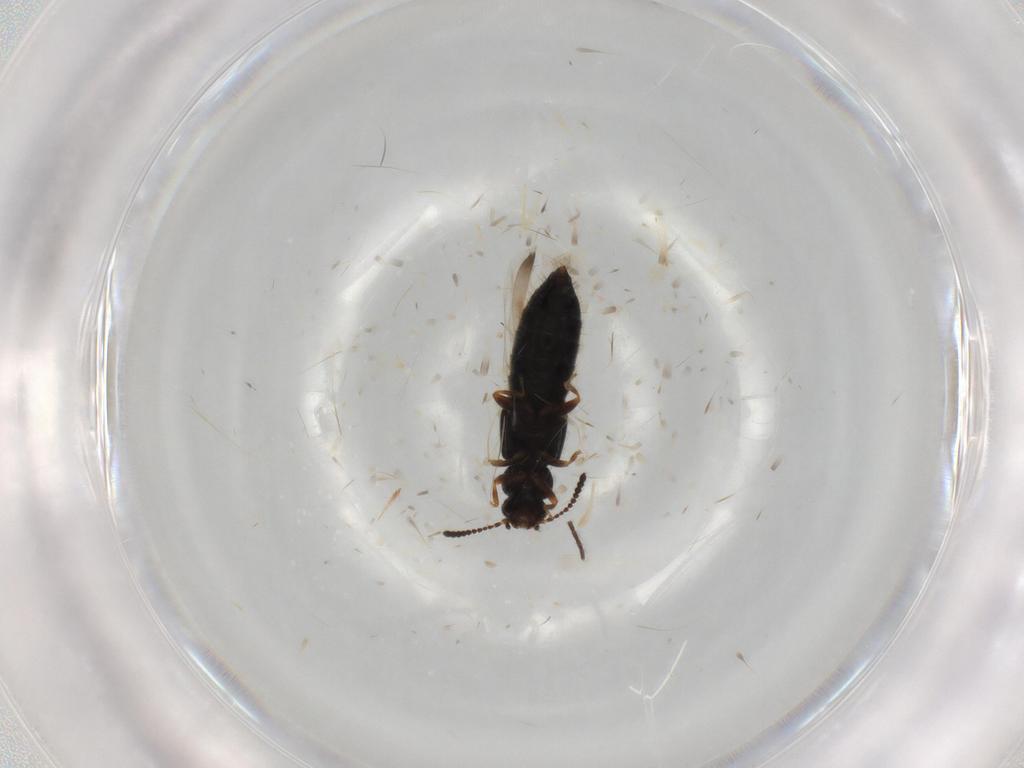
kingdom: Animalia
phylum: Arthropoda
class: Insecta
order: Coleoptera
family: Staphylinidae
